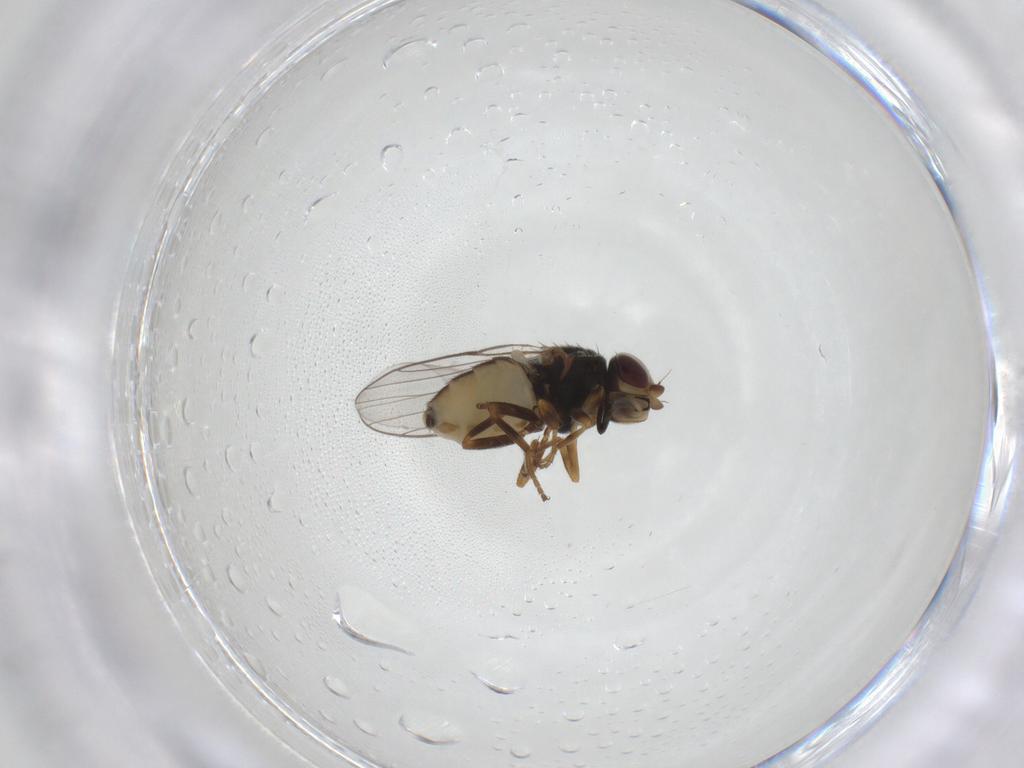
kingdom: Animalia
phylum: Arthropoda
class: Insecta
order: Diptera
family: Chloropidae
